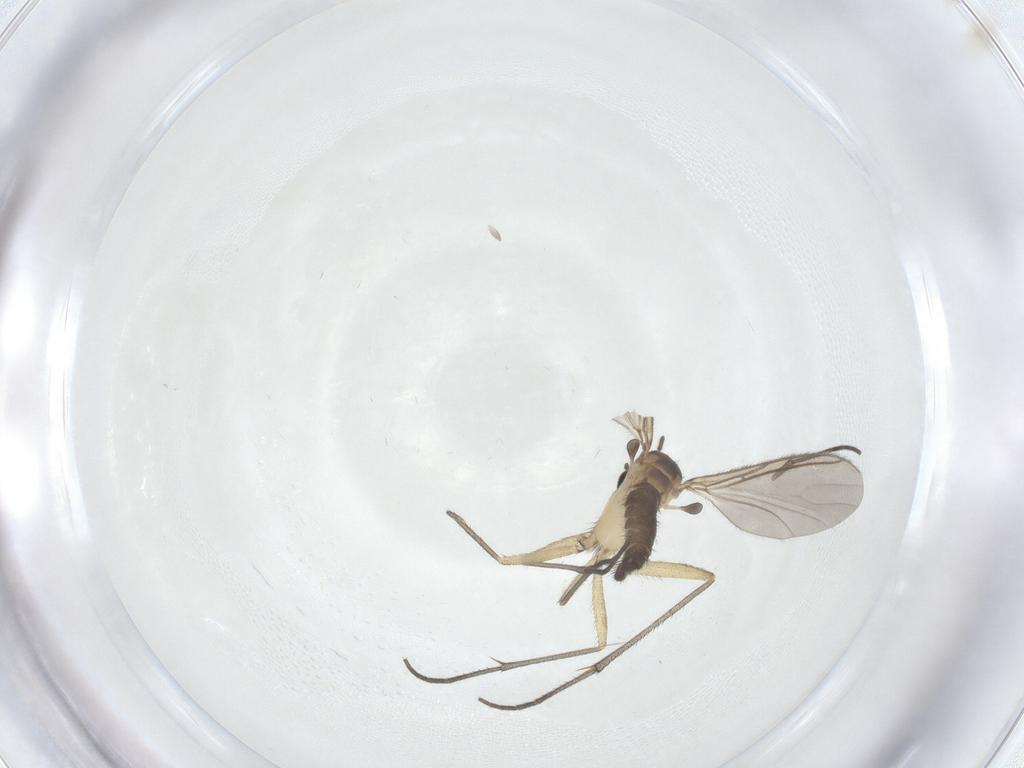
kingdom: Animalia
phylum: Arthropoda
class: Insecta
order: Diptera
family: Sciaridae
